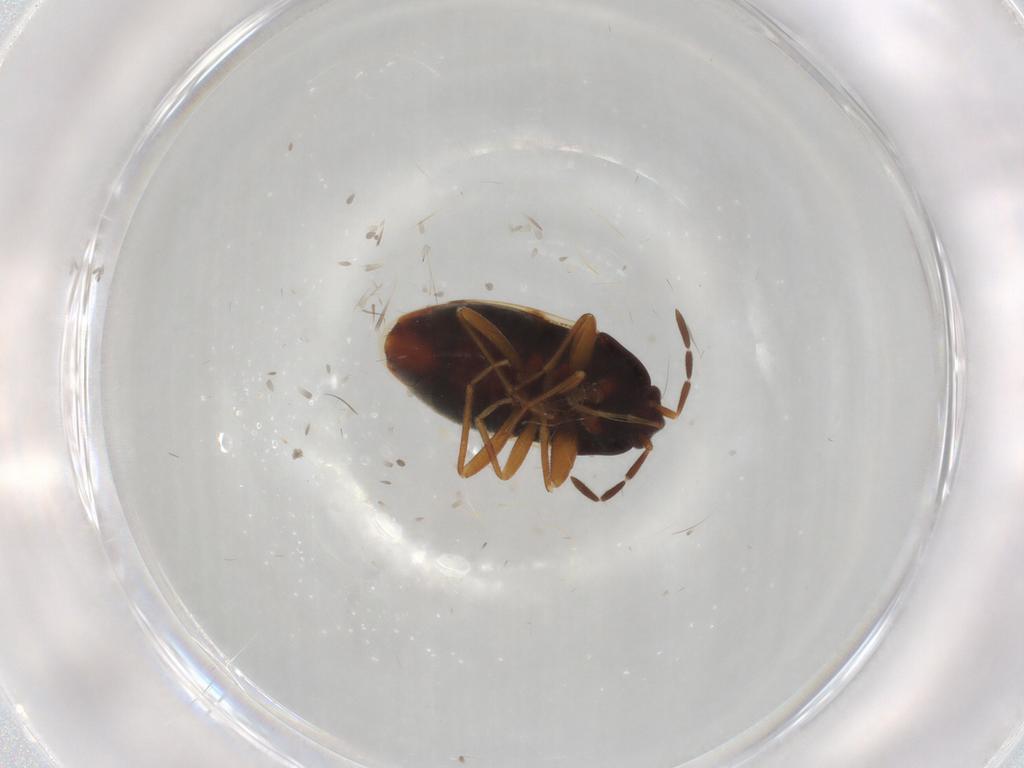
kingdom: Animalia
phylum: Arthropoda
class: Insecta
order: Hemiptera
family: Rhyparochromidae
